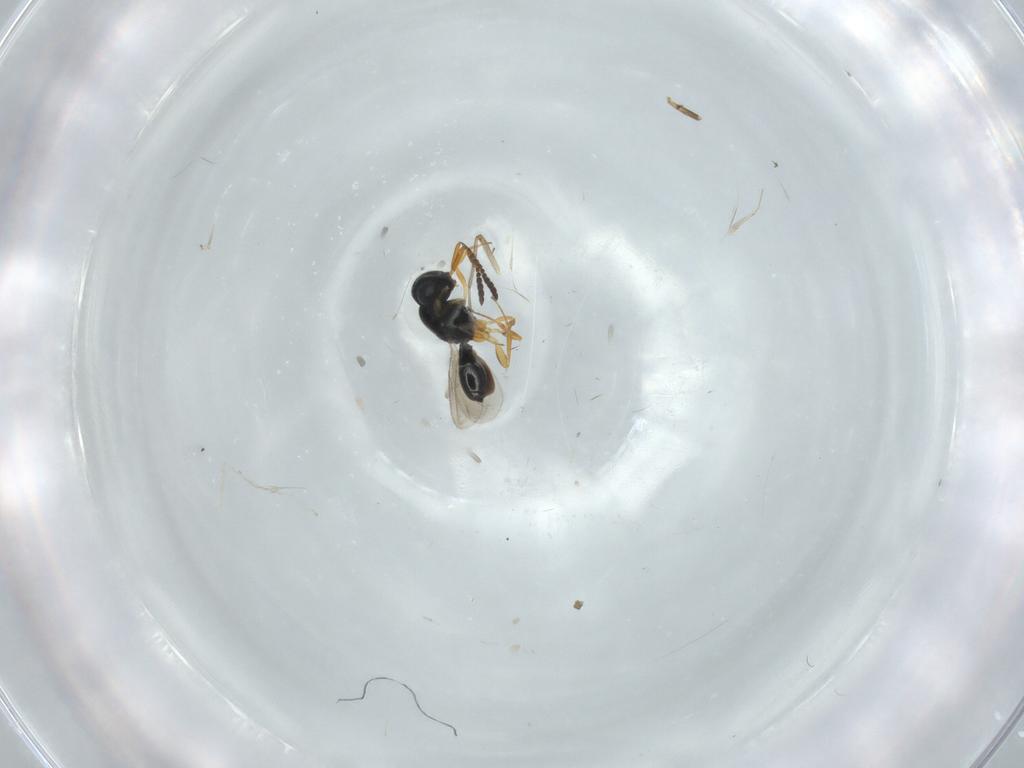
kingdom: Animalia
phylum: Arthropoda
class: Insecta
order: Hymenoptera
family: Scelionidae
